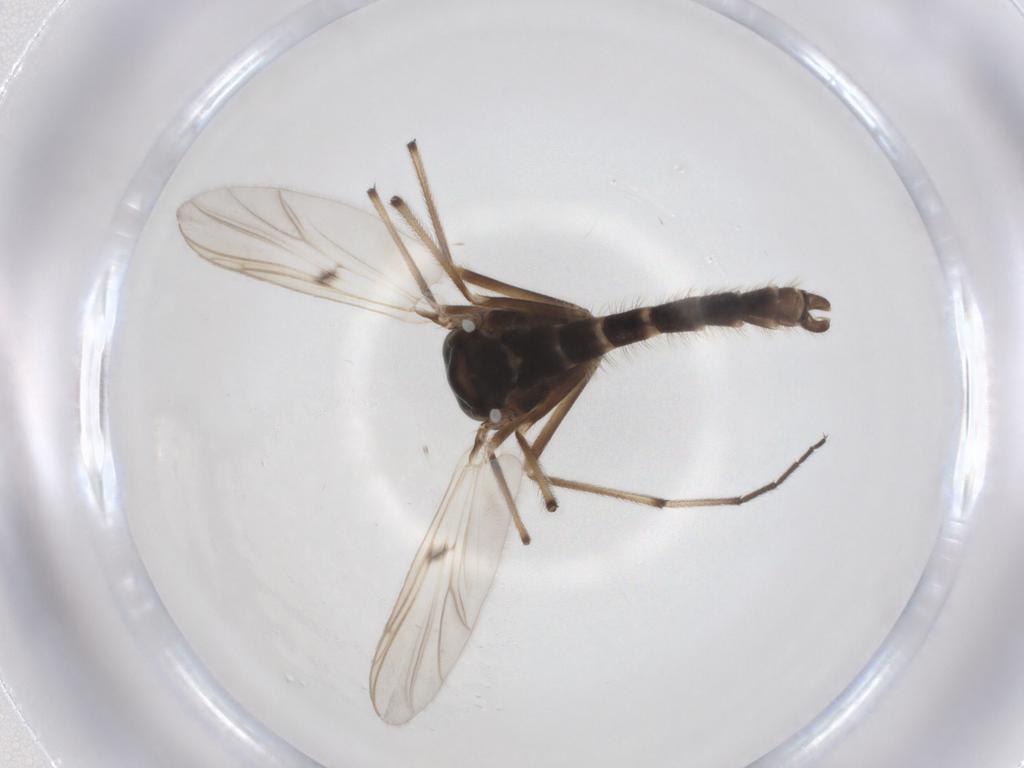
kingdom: Animalia
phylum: Arthropoda
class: Insecta
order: Diptera
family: Chironomidae
